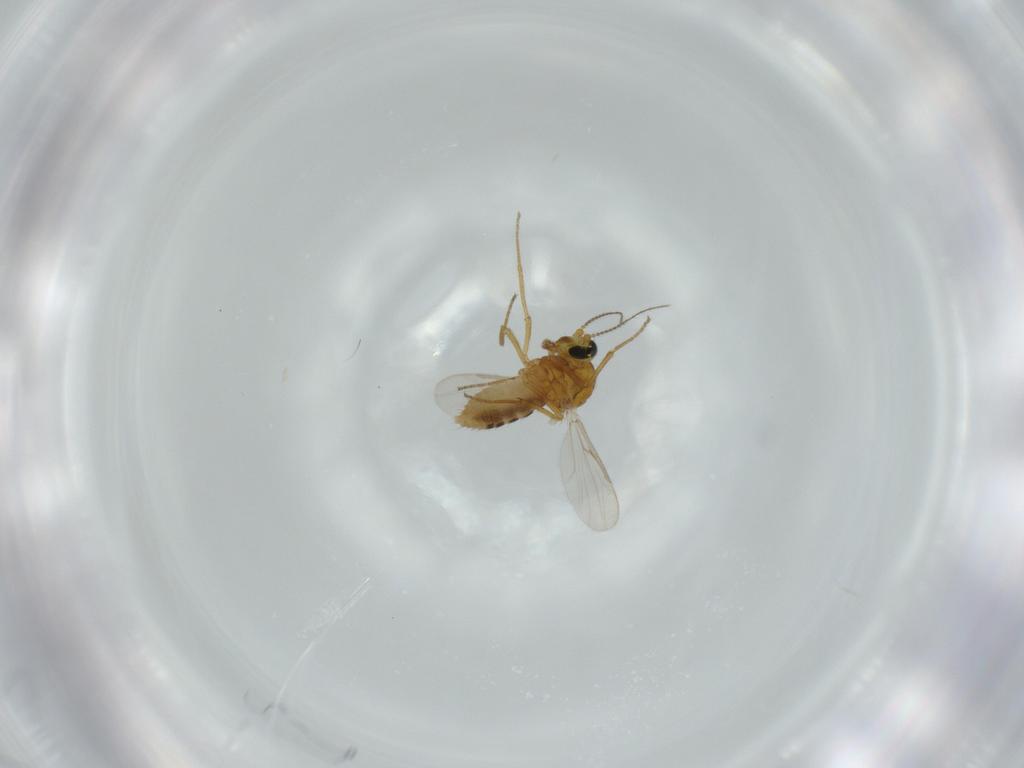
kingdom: Animalia
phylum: Arthropoda
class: Insecta
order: Diptera
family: Ceratopogonidae
